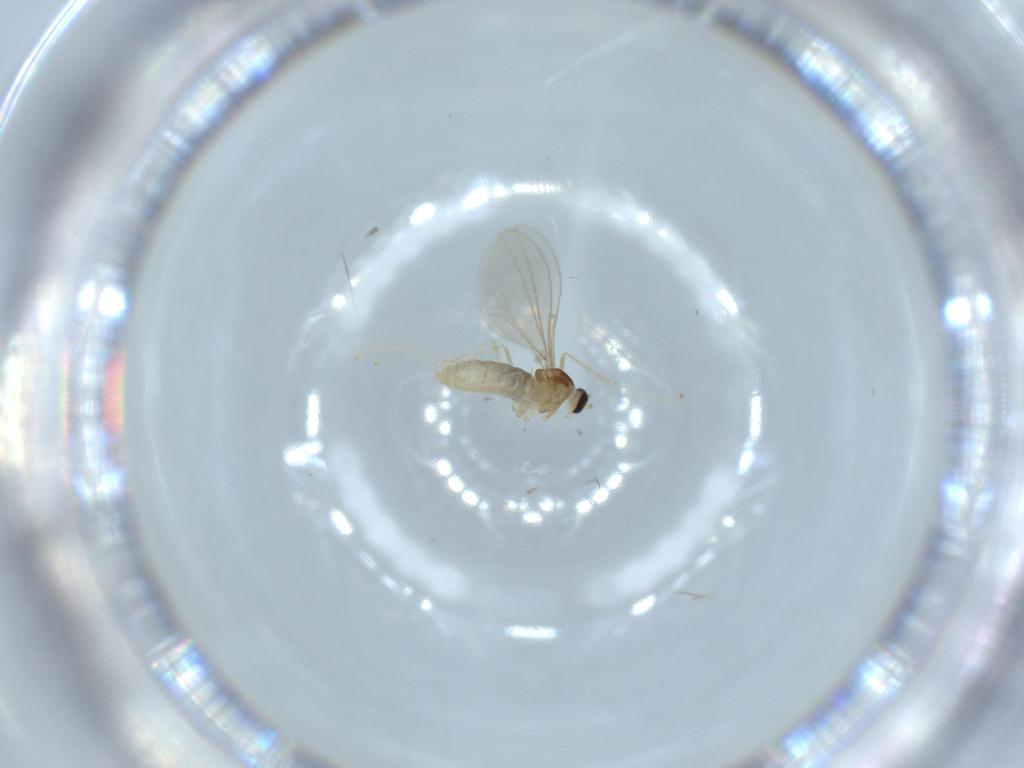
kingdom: Animalia
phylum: Arthropoda
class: Insecta
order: Diptera
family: Cecidomyiidae
